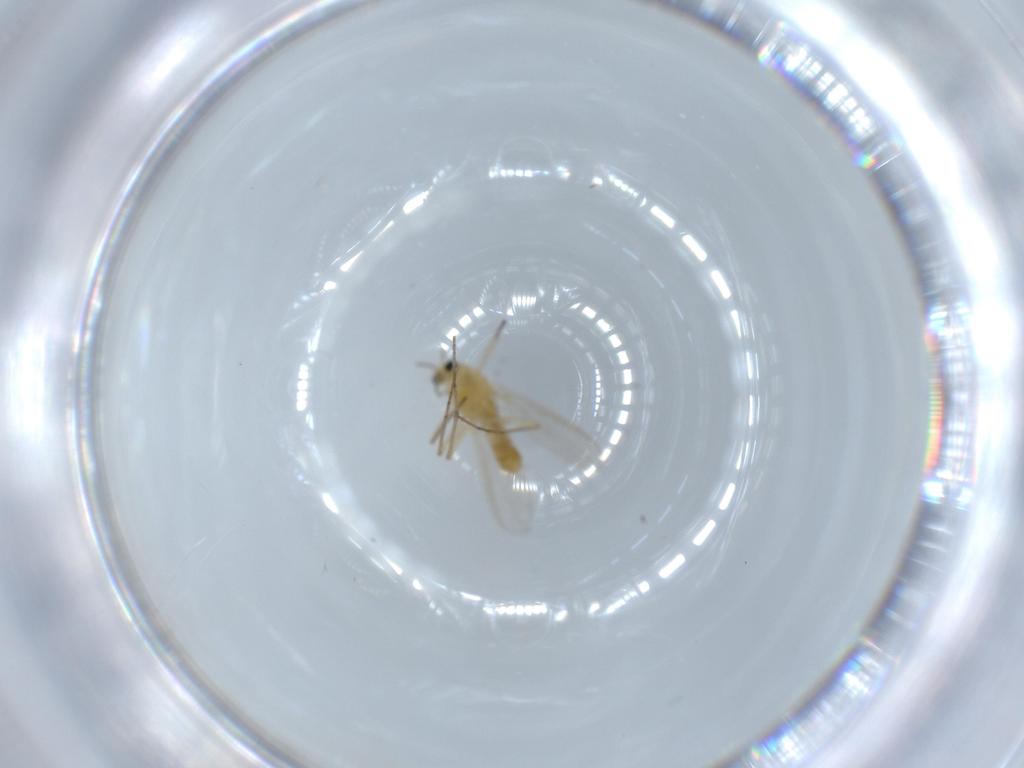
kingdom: Animalia
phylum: Arthropoda
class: Insecta
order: Diptera
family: Chironomidae
